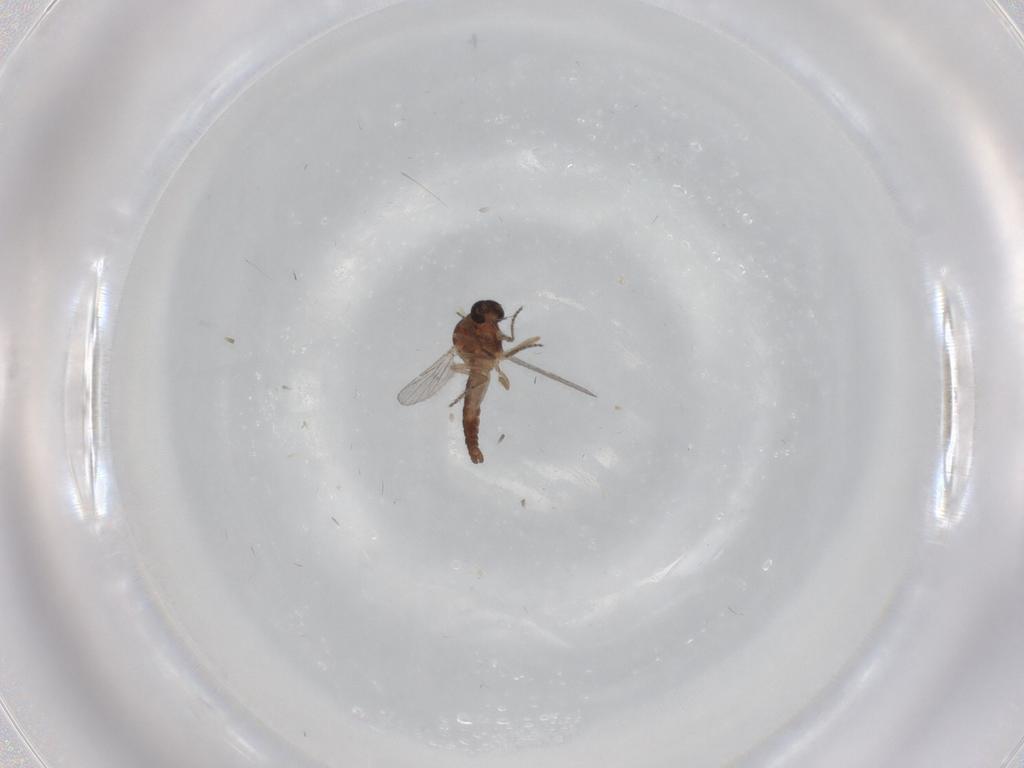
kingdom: Animalia
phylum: Arthropoda
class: Insecta
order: Diptera
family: Ceratopogonidae
